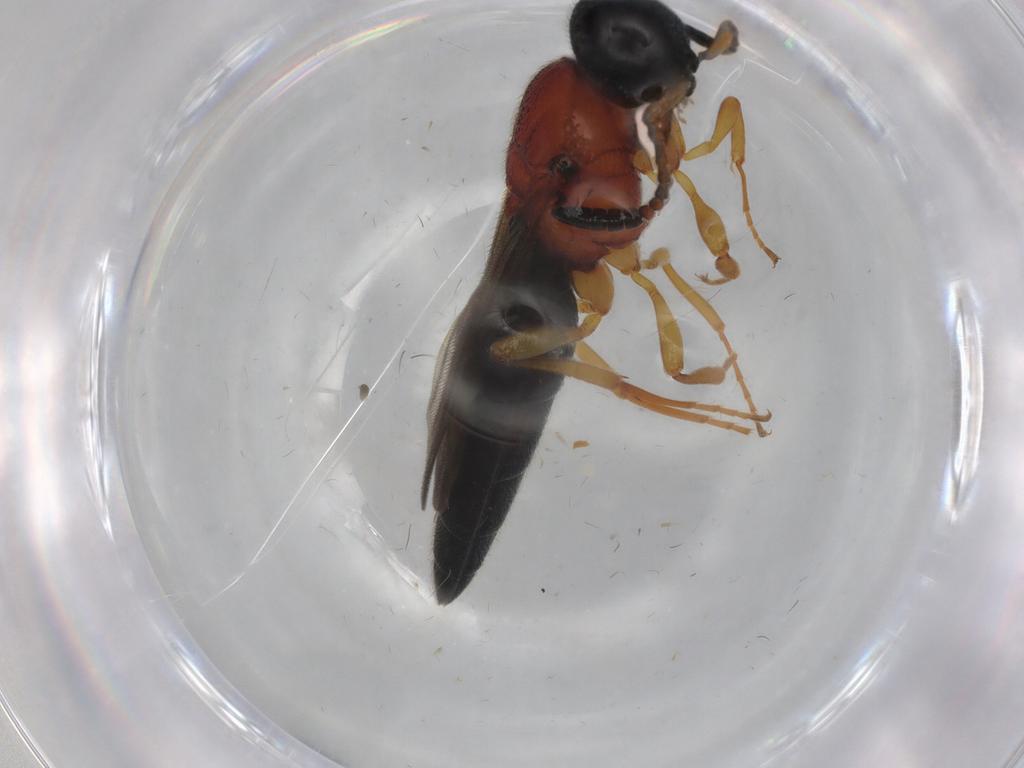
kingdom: Animalia
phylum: Arthropoda
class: Insecta
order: Hymenoptera
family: Scelionidae
